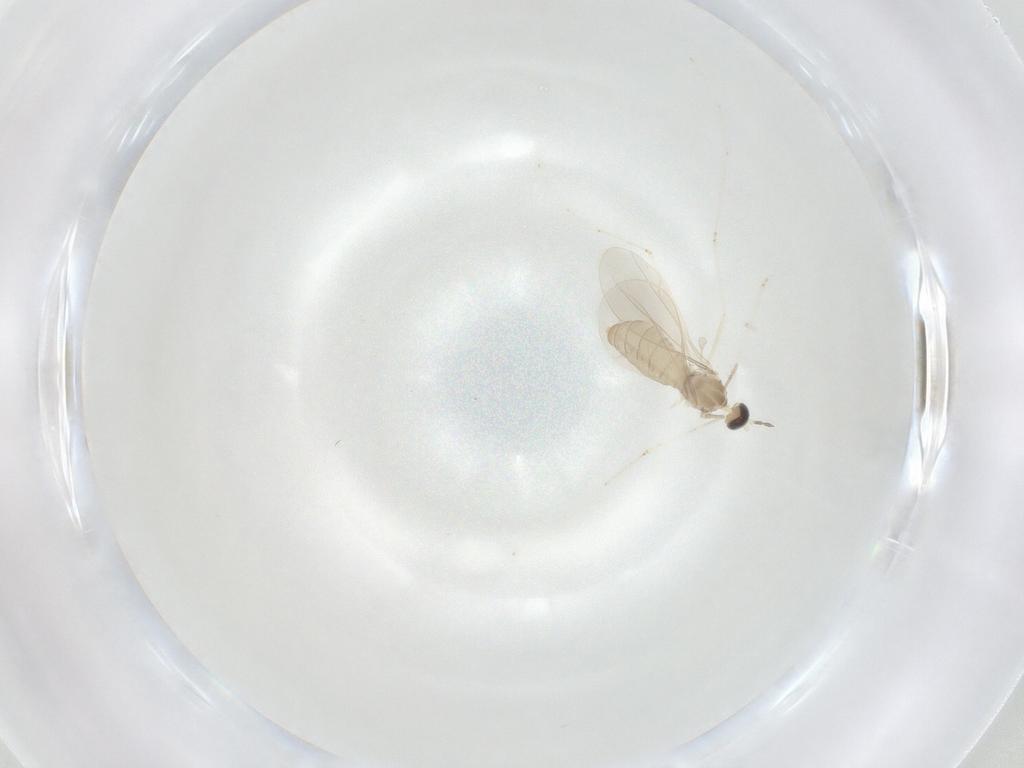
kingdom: Animalia
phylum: Arthropoda
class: Insecta
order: Diptera
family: Cecidomyiidae
